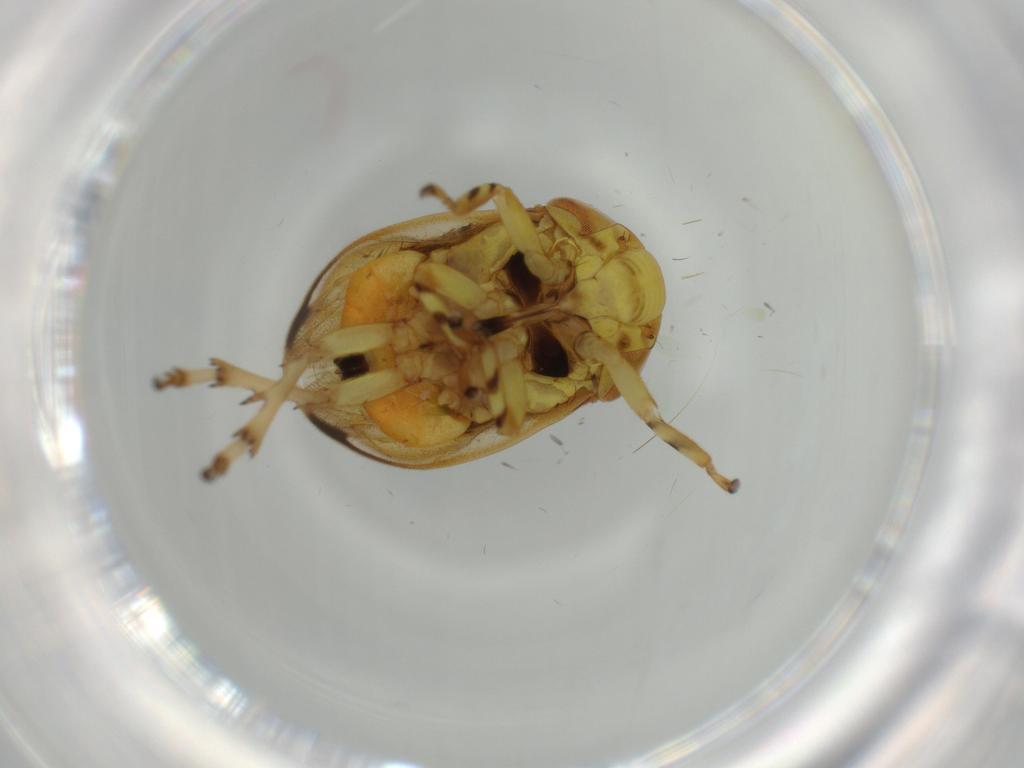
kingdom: Animalia
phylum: Arthropoda
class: Insecta
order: Hemiptera
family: Clastopteridae
